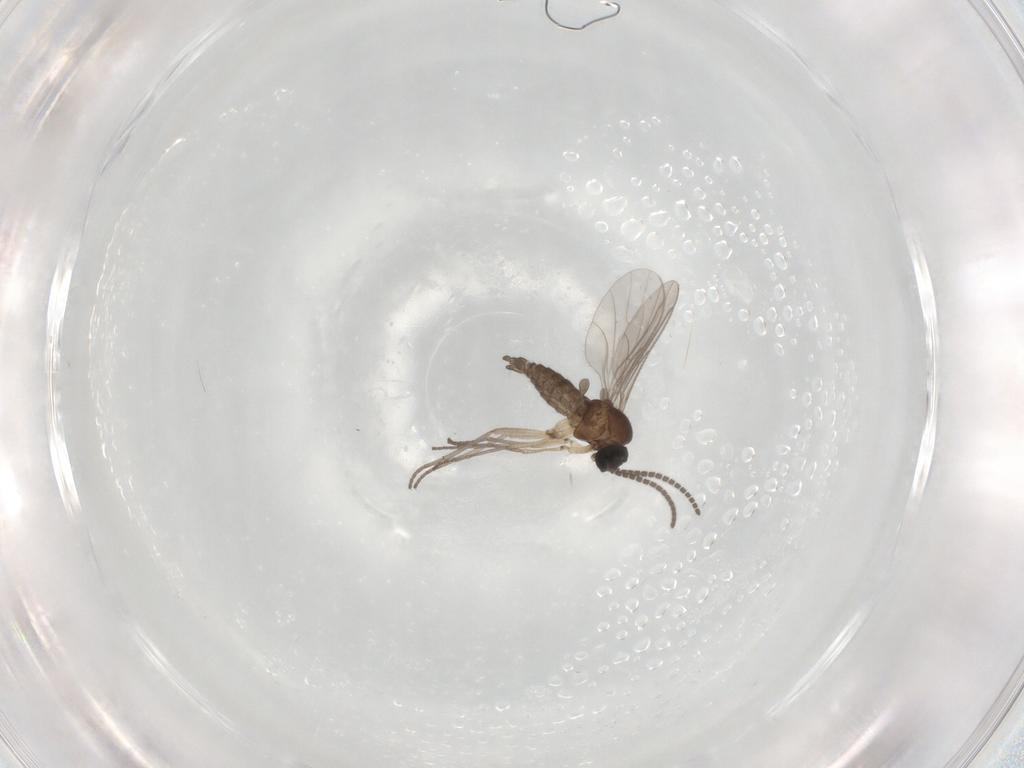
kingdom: Animalia
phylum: Arthropoda
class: Insecta
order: Diptera
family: Sciaridae
